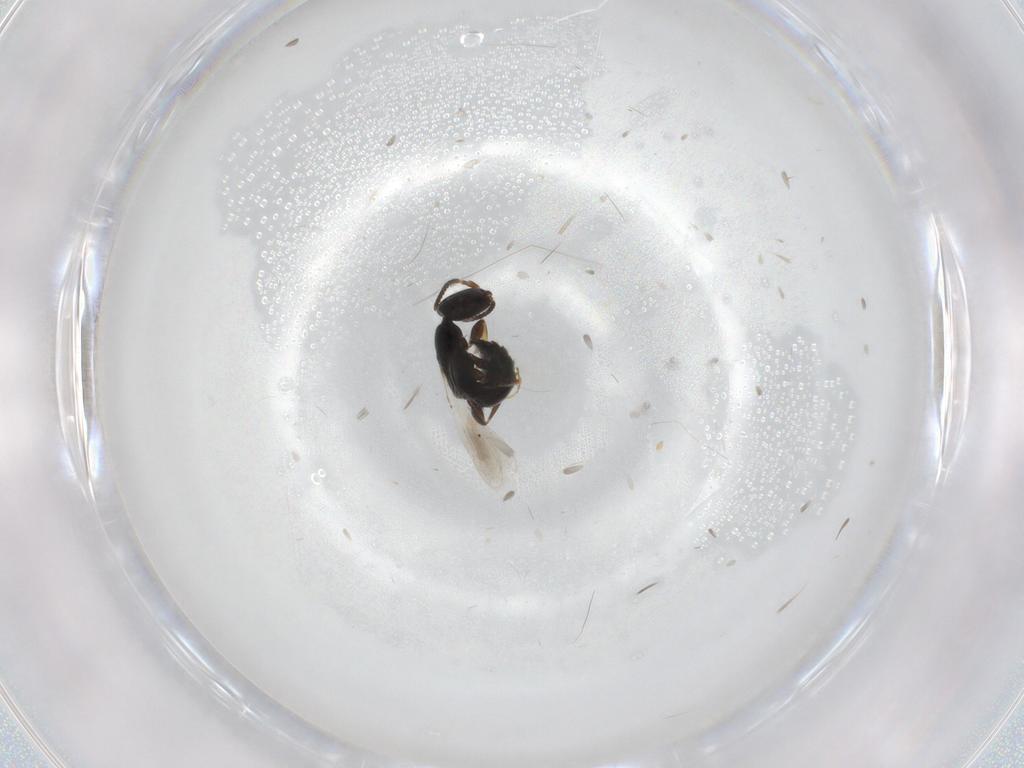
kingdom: Animalia
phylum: Arthropoda
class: Insecta
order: Hymenoptera
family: Bethylidae
